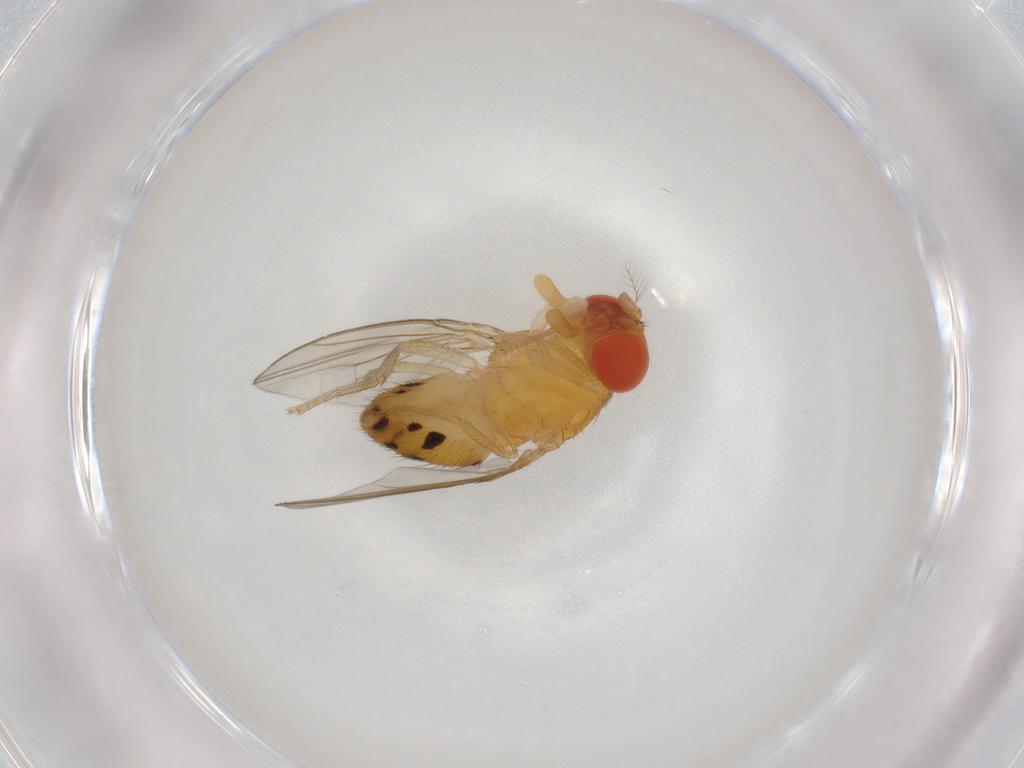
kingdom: Animalia
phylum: Arthropoda
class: Insecta
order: Diptera
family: Drosophilidae
